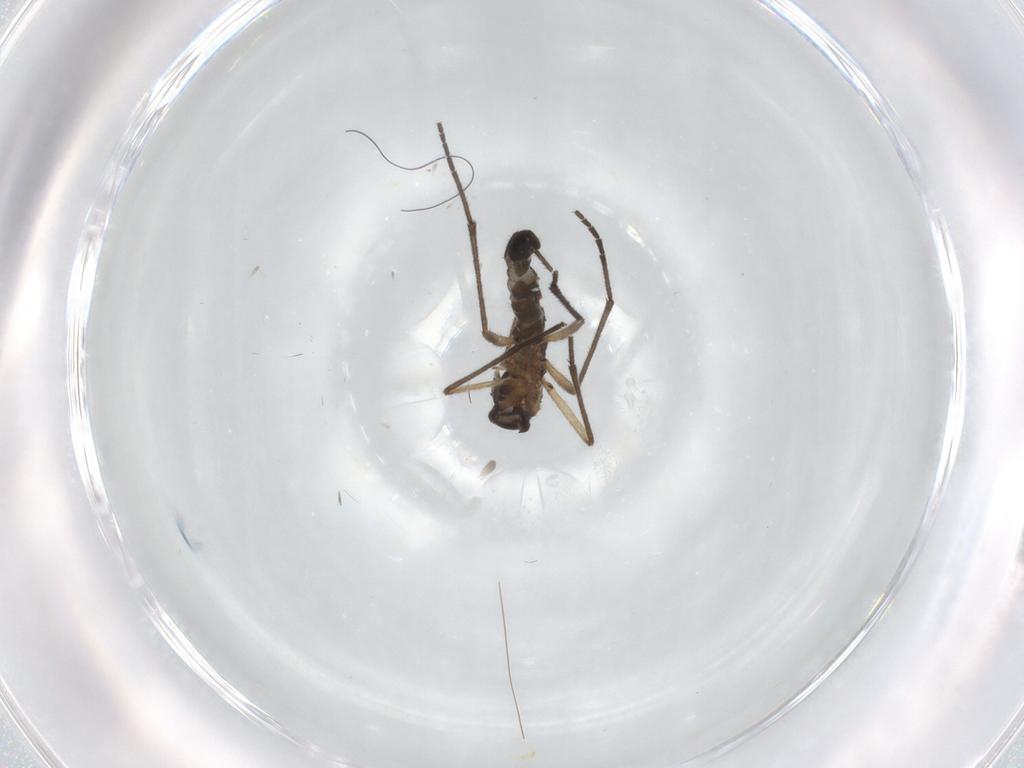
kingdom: Animalia
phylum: Arthropoda
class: Insecta
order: Diptera
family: Sciaridae
